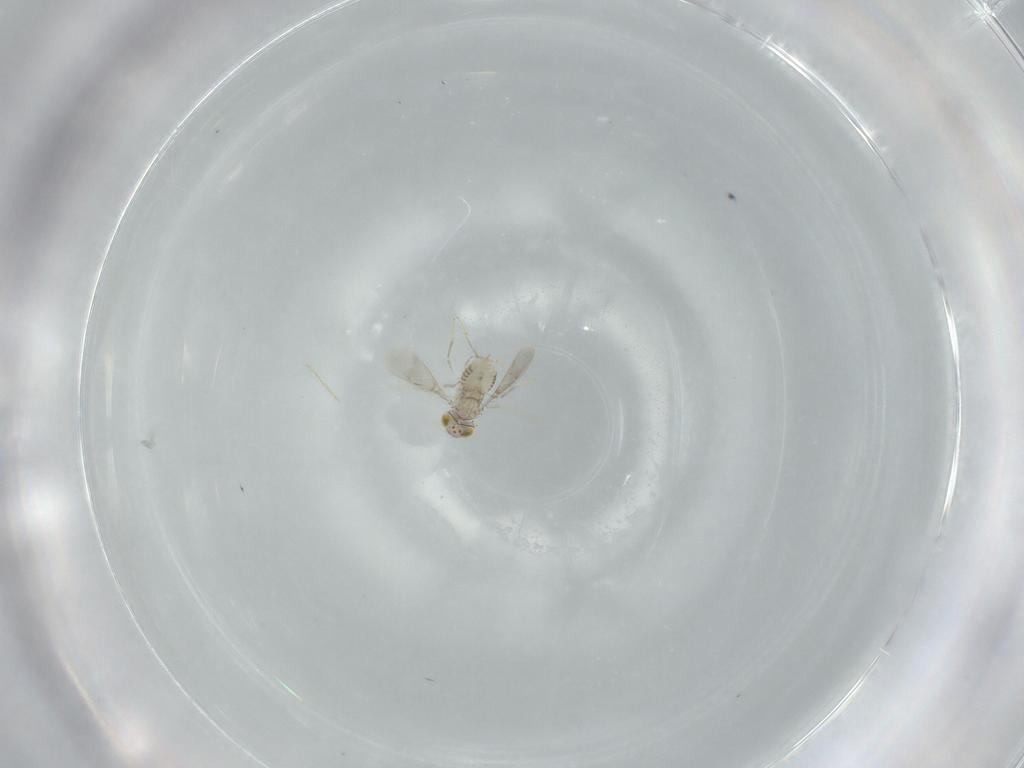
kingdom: Animalia
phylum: Arthropoda
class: Insecta
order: Hymenoptera
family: Aphelinidae
